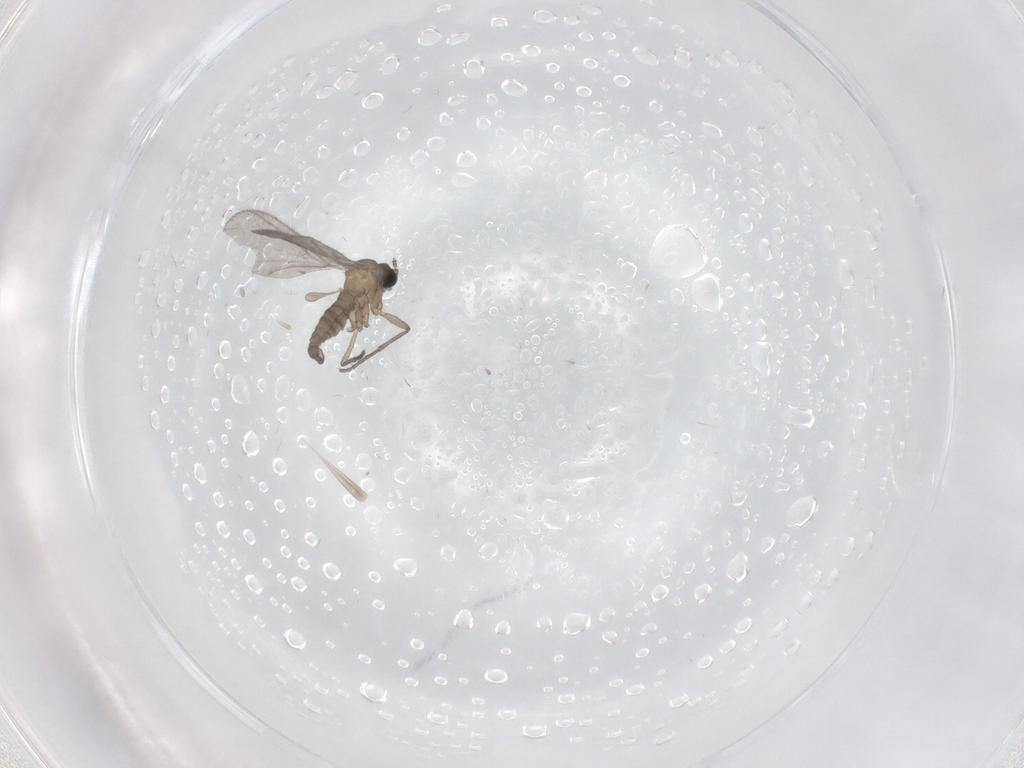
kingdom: Animalia
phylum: Arthropoda
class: Insecta
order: Diptera
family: Sciaridae
